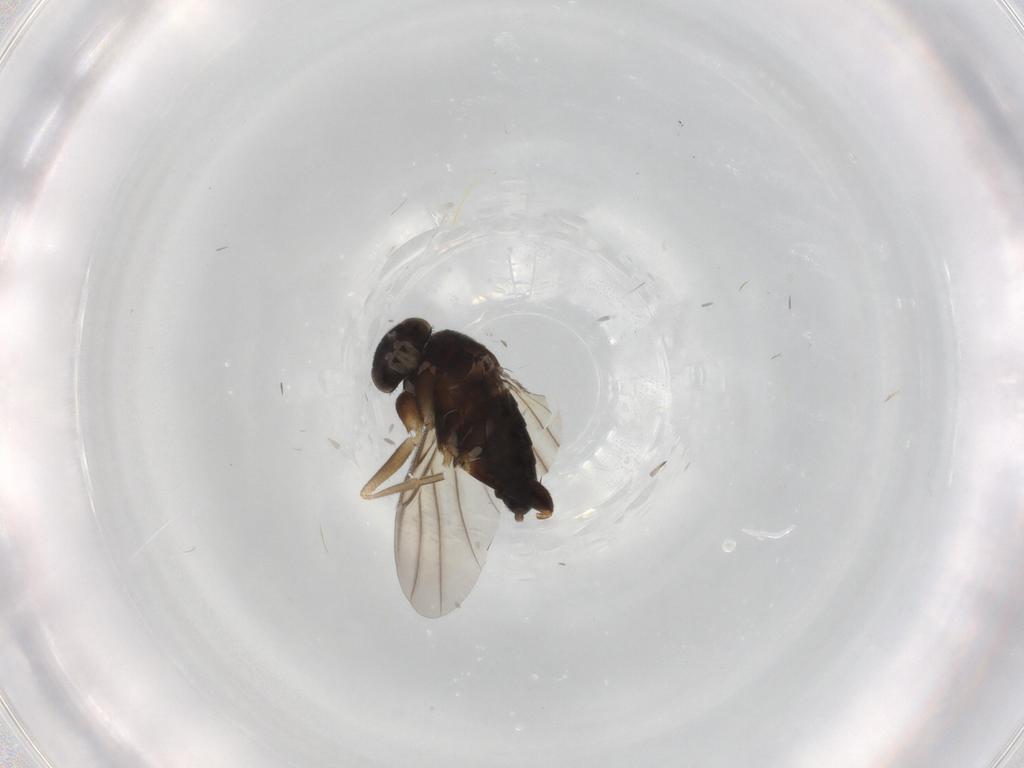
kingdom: Animalia
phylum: Arthropoda
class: Insecta
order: Diptera
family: Phoridae
